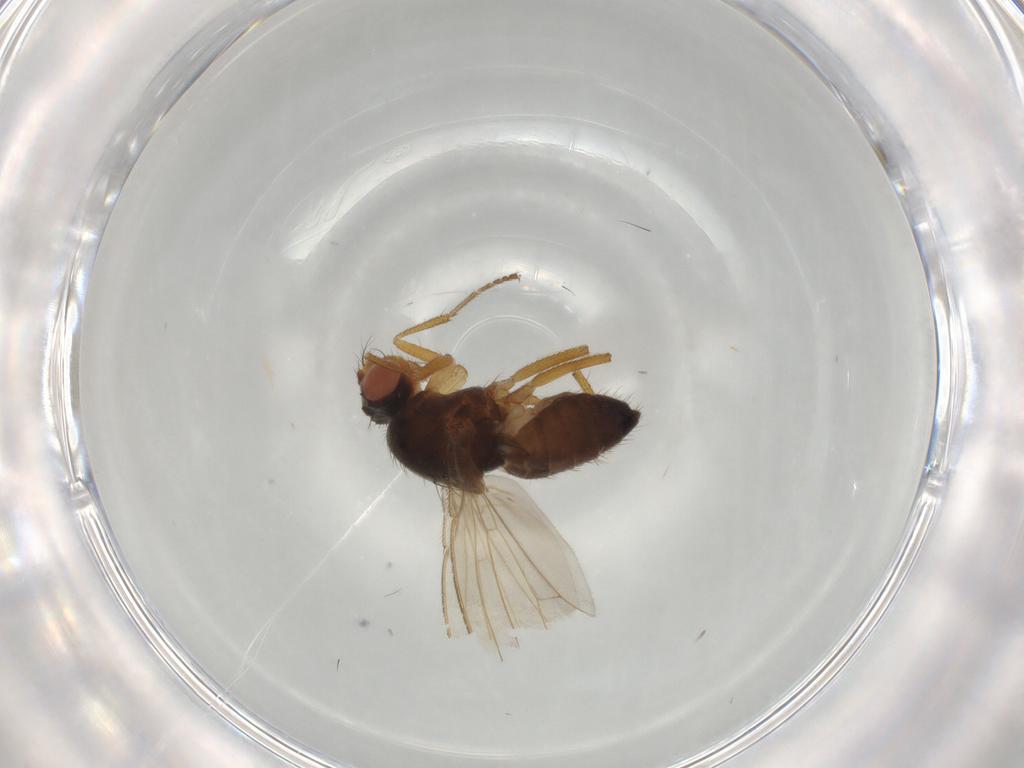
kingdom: Animalia
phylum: Arthropoda
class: Insecta
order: Diptera
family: Drosophilidae
